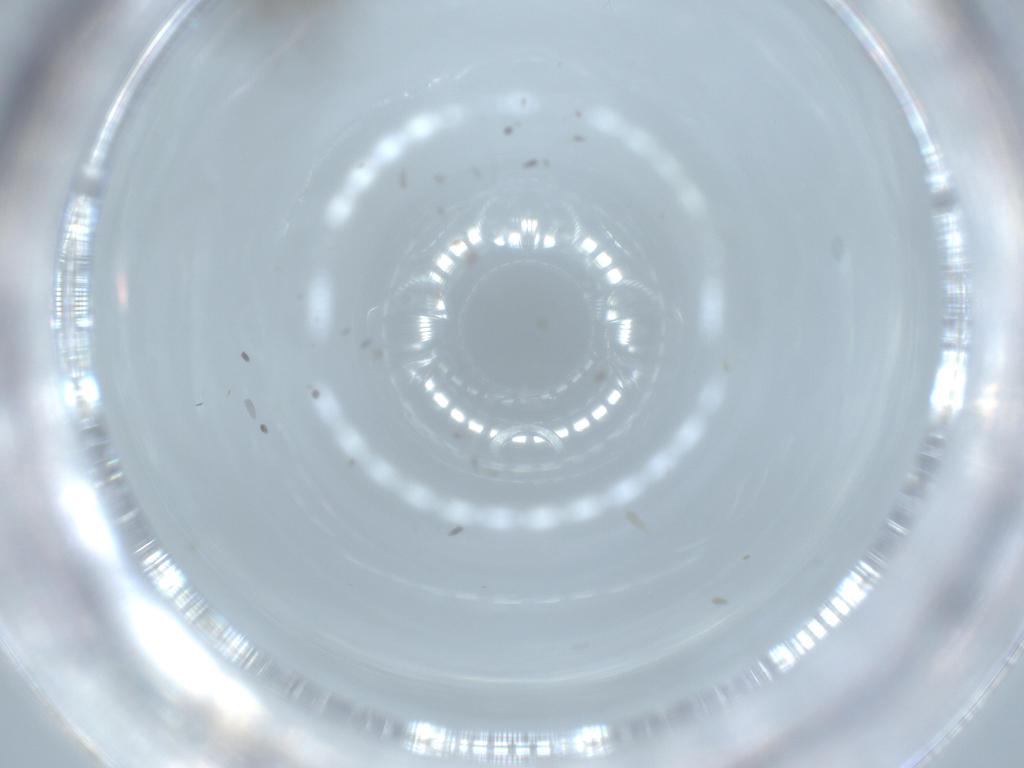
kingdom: Animalia
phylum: Arthropoda
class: Insecta
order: Diptera
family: Cecidomyiidae
